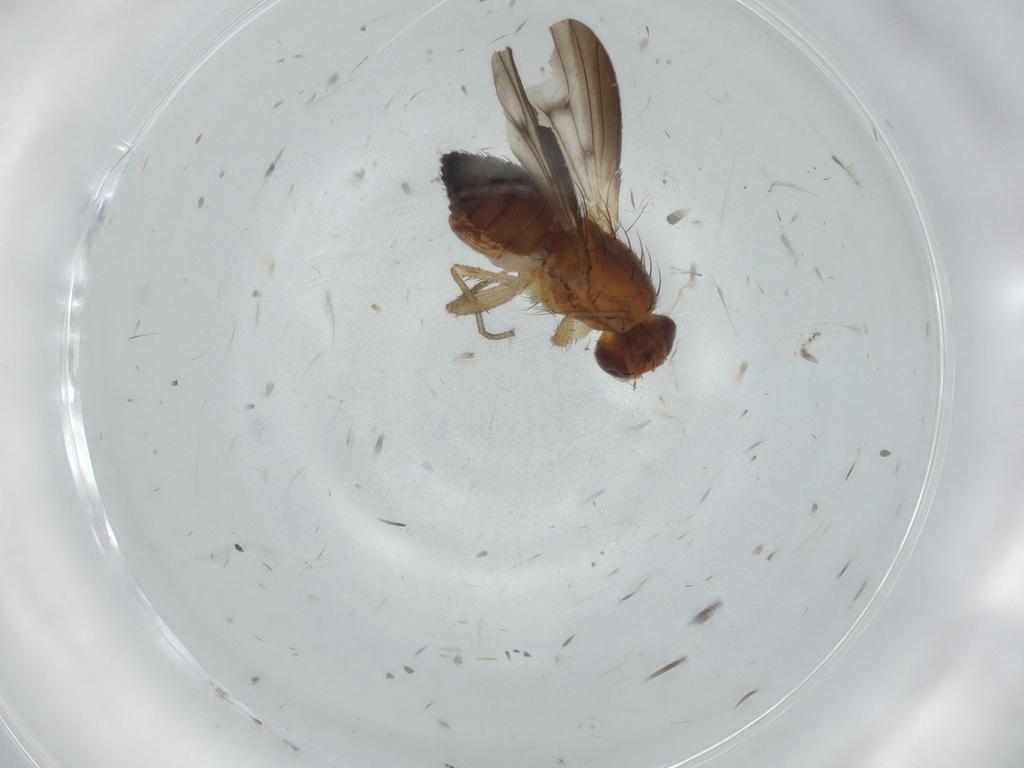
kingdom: Animalia
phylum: Arthropoda
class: Insecta
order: Diptera
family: Heleomyzidae
